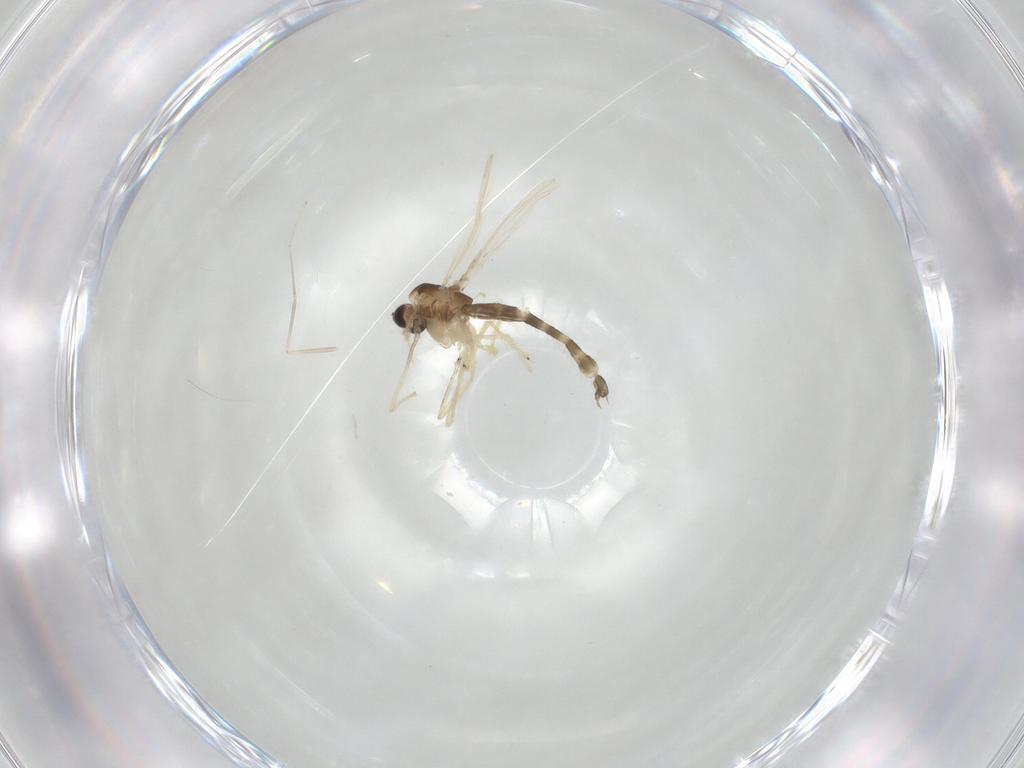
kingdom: Animalia
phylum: Arthropoda
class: Insecta
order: Diptera
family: Chironomidae
